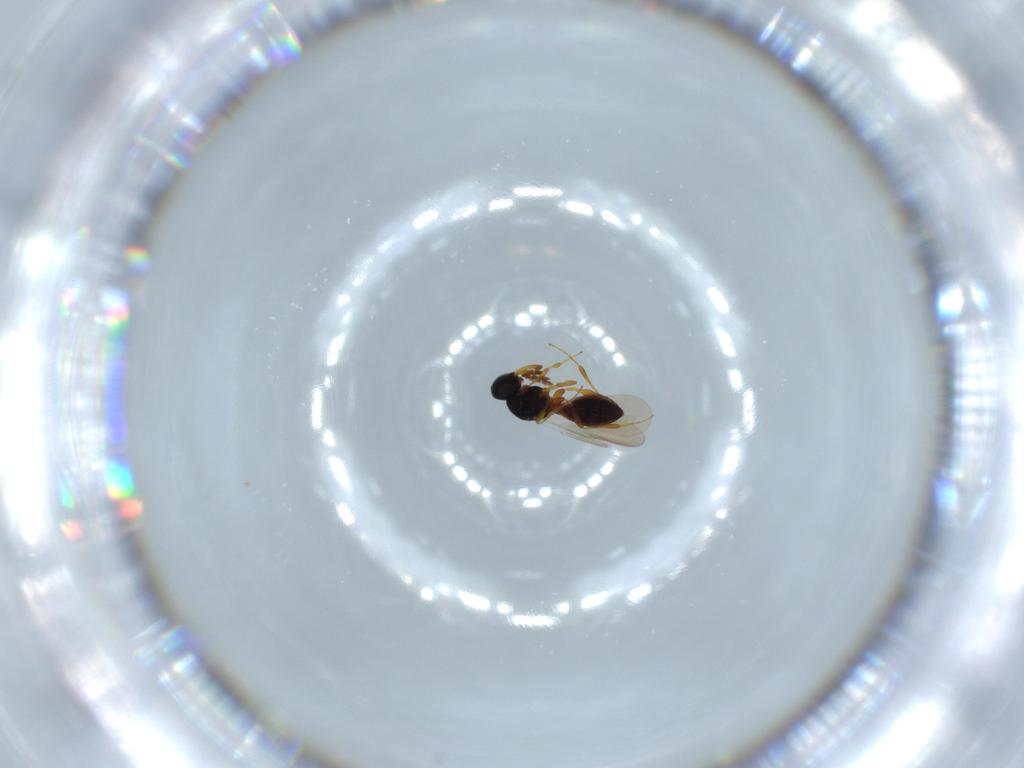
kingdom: Animalia
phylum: Arthropoda
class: Insecta
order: Hymenoptera
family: Platygastridae
